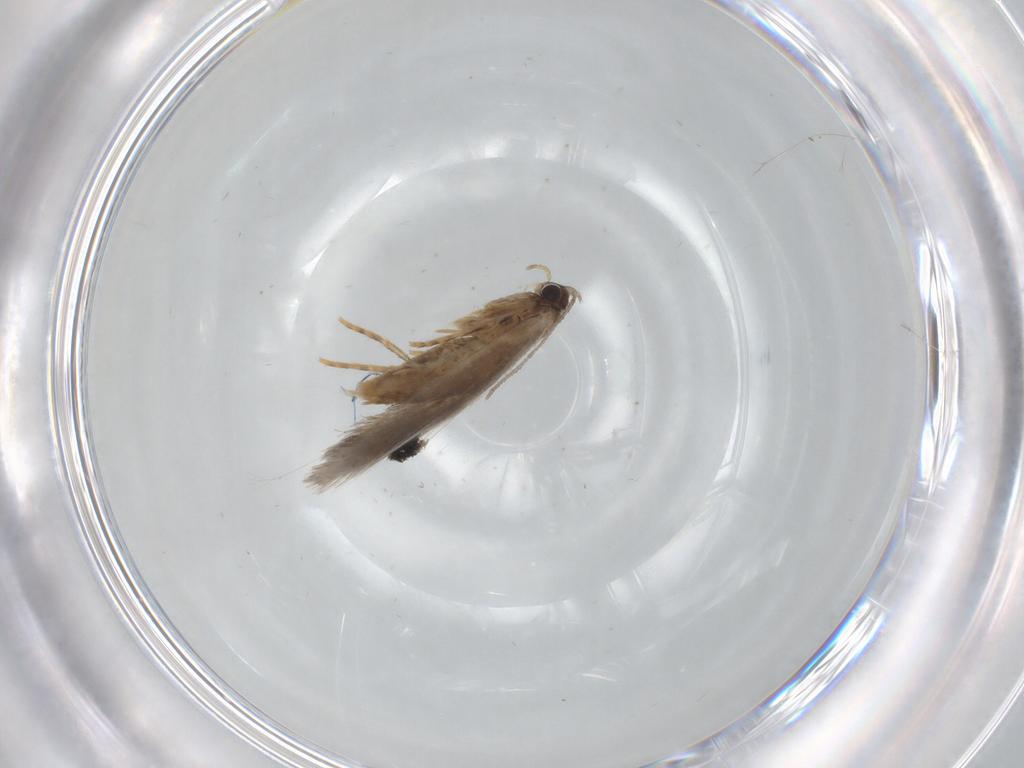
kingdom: Animalia
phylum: Arthropoda
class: Insecta
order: Lepidoptera
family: Tineidae
